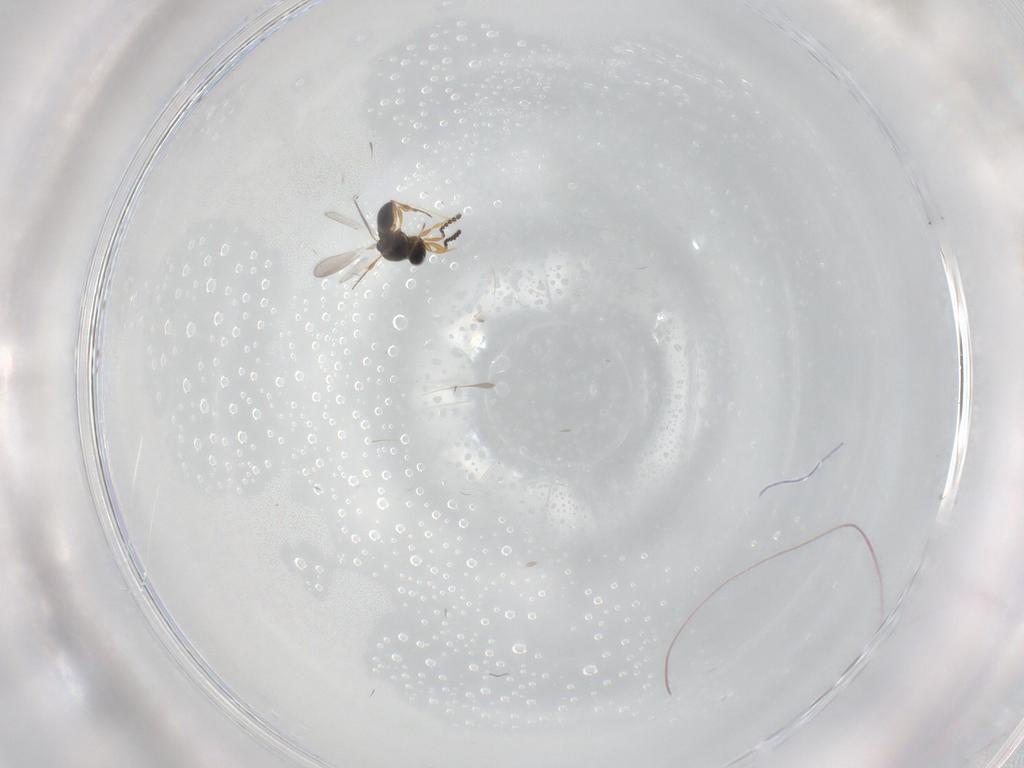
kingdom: Animalia
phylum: Arthropoda
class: Insecta
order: Hymenoptera
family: Platygastridae
